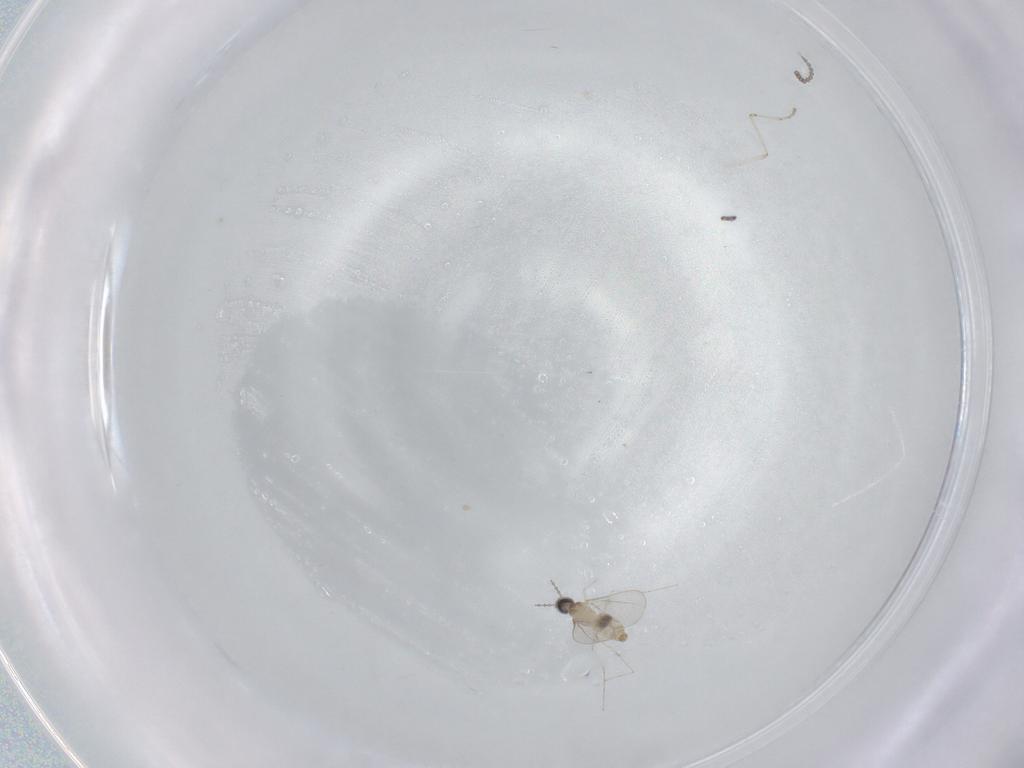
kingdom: Animalia
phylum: Arthropoda
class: Insecta
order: Diptera
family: Cecidomyiidae
